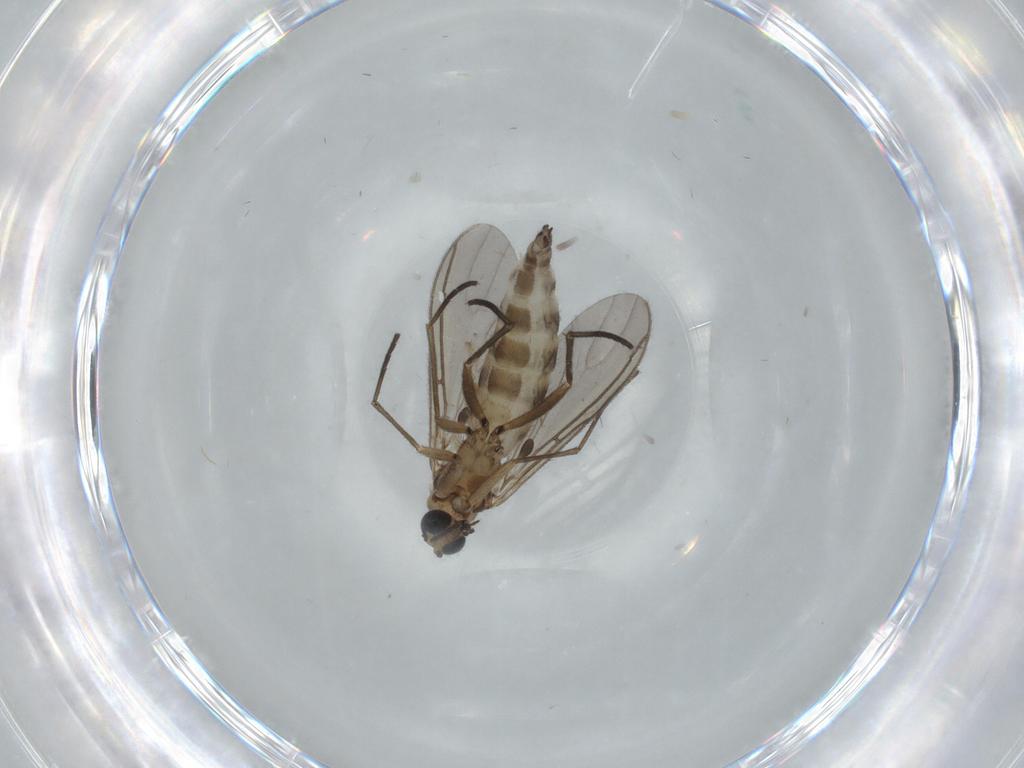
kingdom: Animalia
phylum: Arthropoda
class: Insecta
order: Diptera
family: Sciaridae
